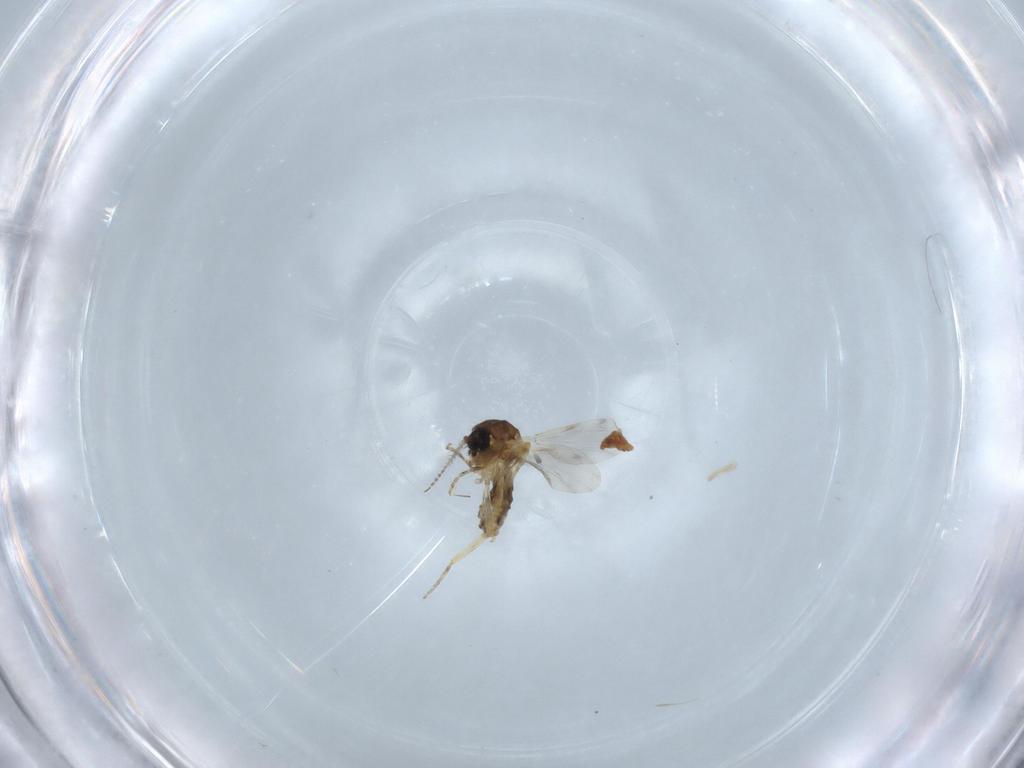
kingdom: Animalia
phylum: Arthropoda
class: Insecta
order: Diptera
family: Ceratopogonidae
